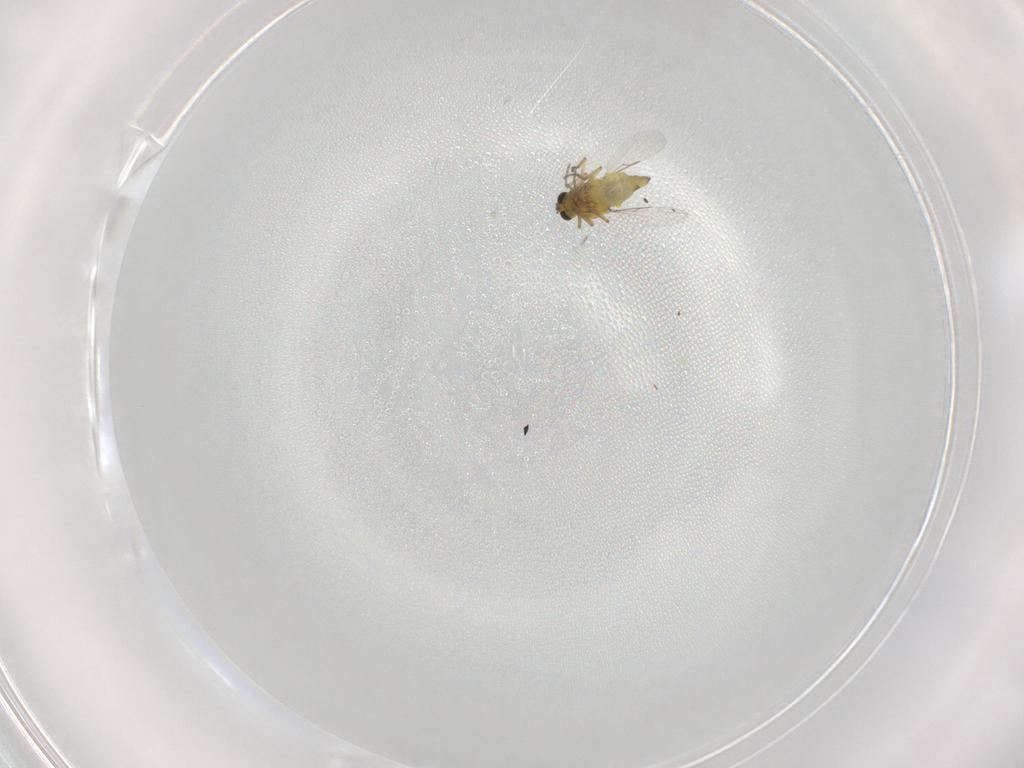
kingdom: Animalia
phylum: Arthropoda
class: Insecta
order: Diptera
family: Ceratopogonidae
